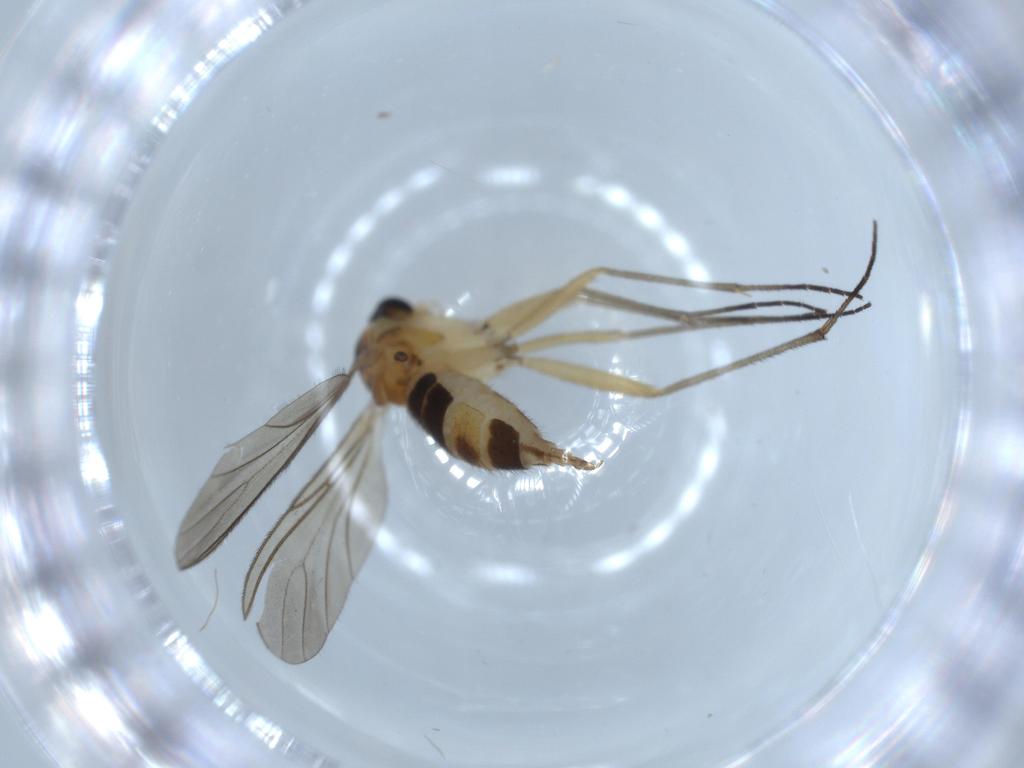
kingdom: Animalia
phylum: Arthropoda
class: Insecta
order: Diptera
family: Sciaridae
